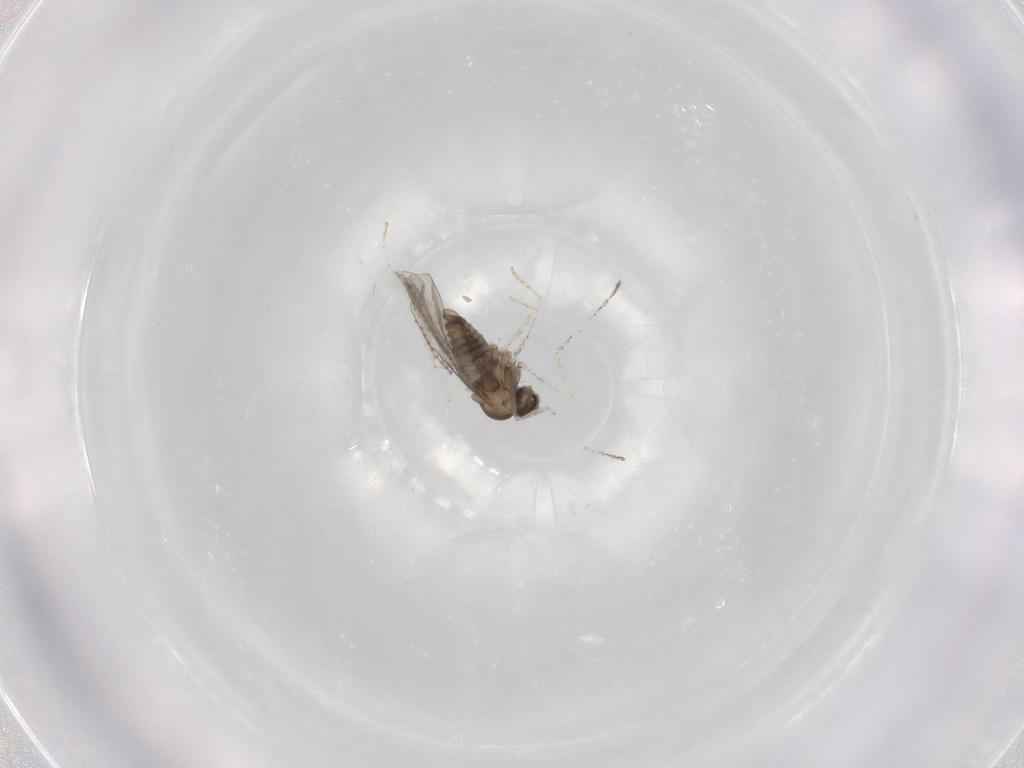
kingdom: Animalia
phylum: Arthropoda
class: Insecta
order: Diptera
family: Cecidomyiidae
